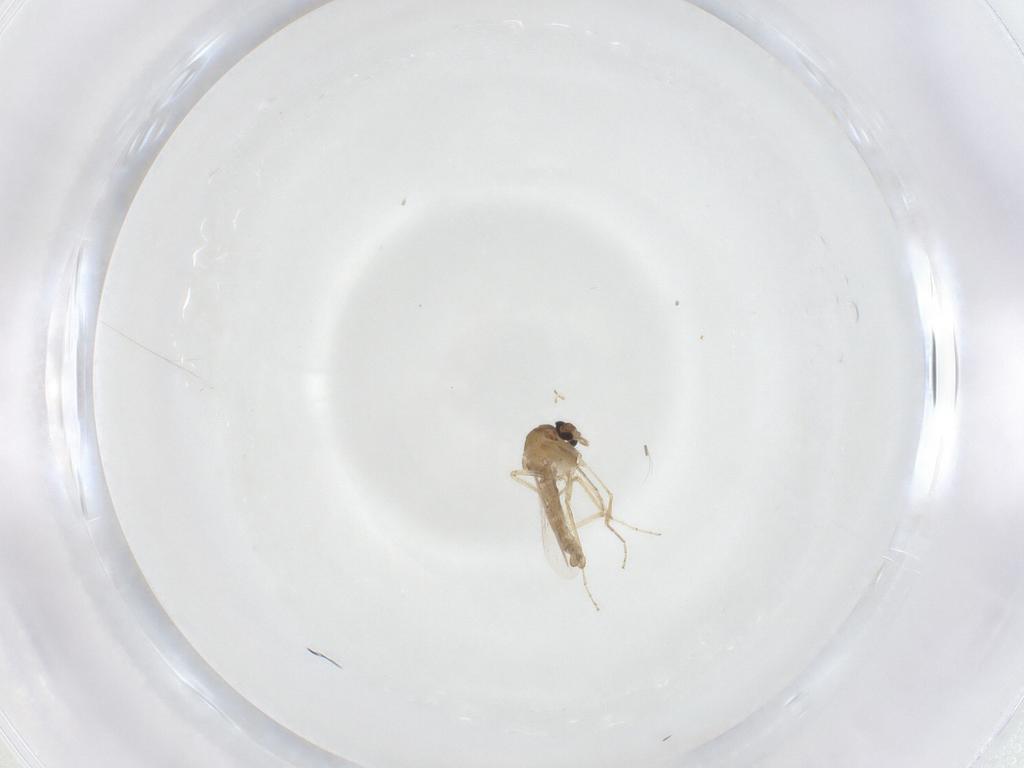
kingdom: Animalia
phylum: Arthropoda
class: Insecta
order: Diptera
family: Ceratopogonidae
